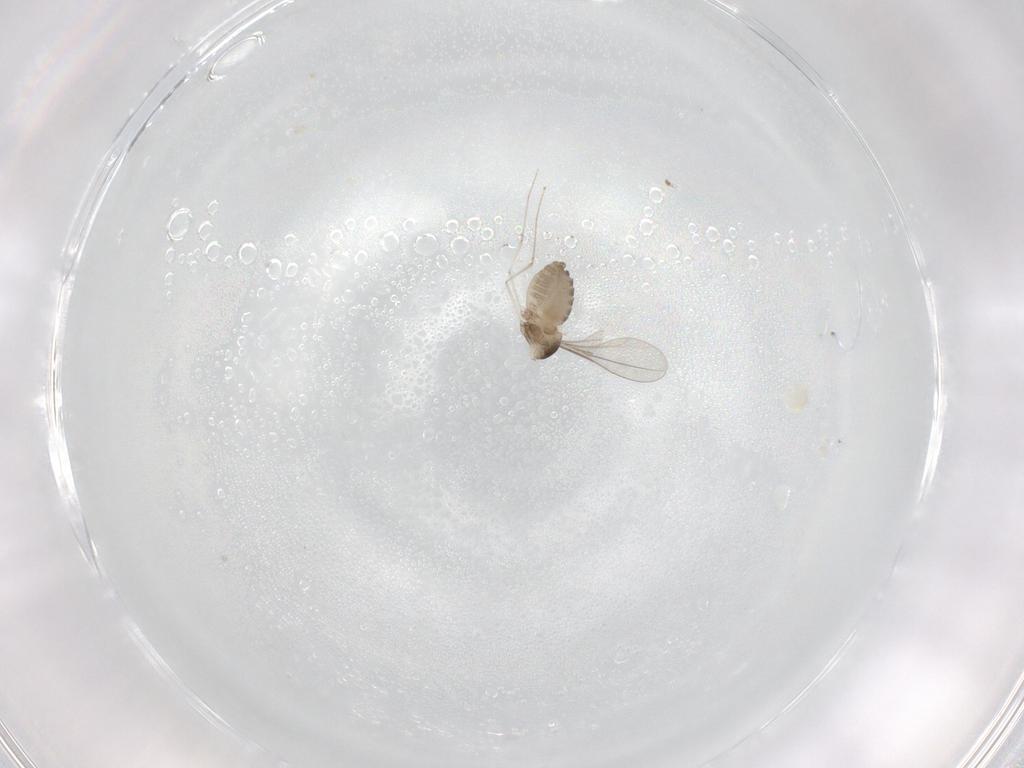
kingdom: Animalia
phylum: Arthropoda
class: Insecta
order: Diptera
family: Cecidomyiidae
